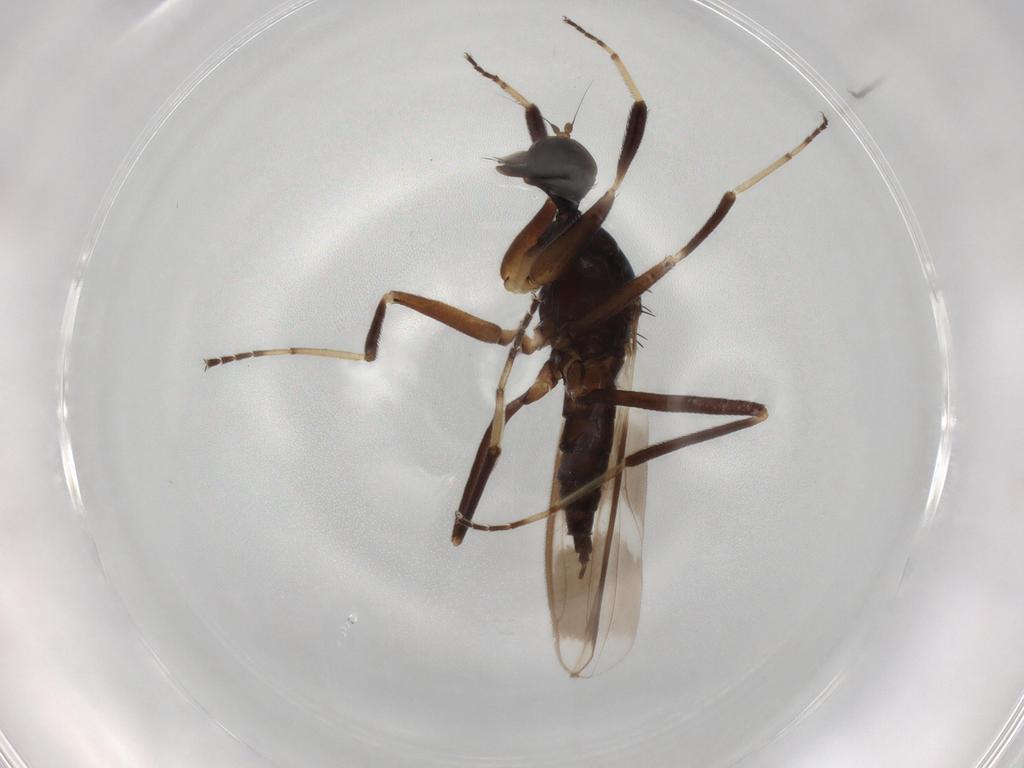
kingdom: Animalia
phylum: Arthropoda
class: Insecta
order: Diptera
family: Hybotidae
